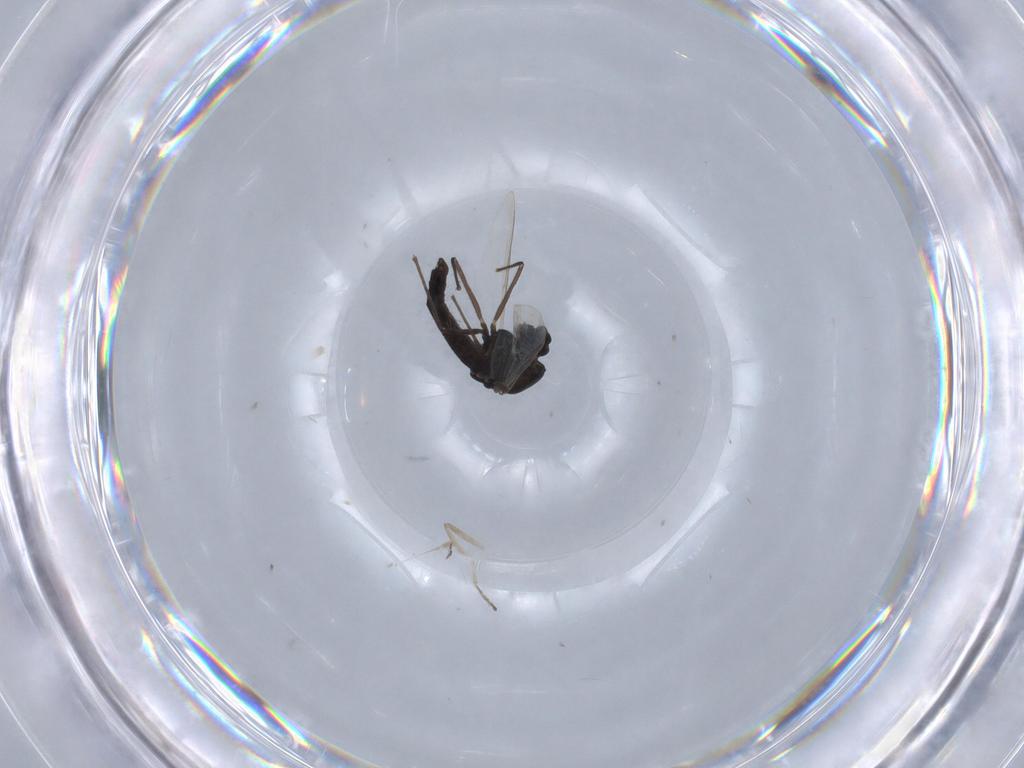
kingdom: Animalia
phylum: Arthropoda
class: Insecta
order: Diptera
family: Chironomidae
